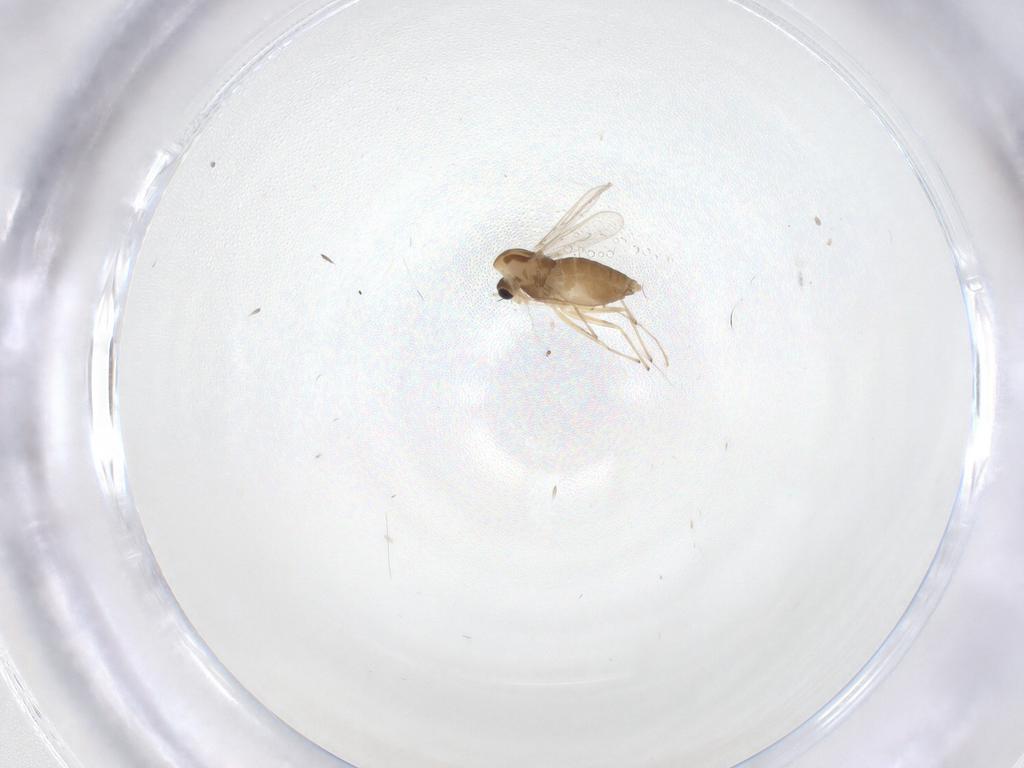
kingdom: Animalia
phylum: Arthropoda
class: Insecta
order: Diptera
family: Chironomidae
